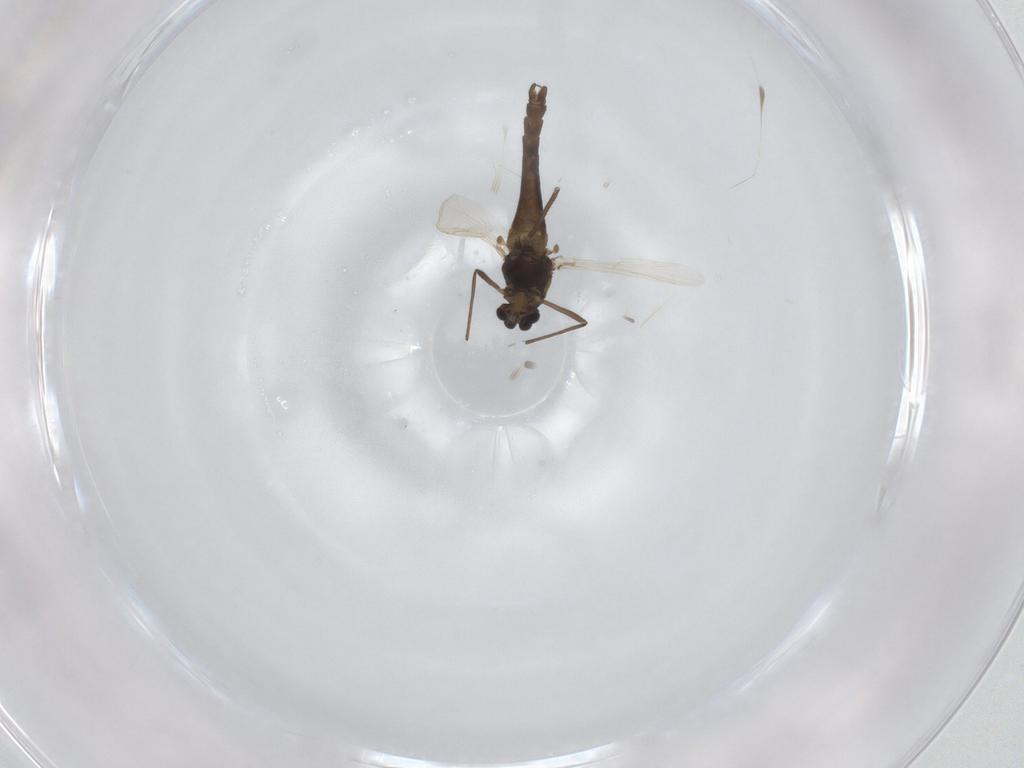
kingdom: Animalia
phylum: Arthropoda
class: Insecta
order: Diptera
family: Chironomidae
